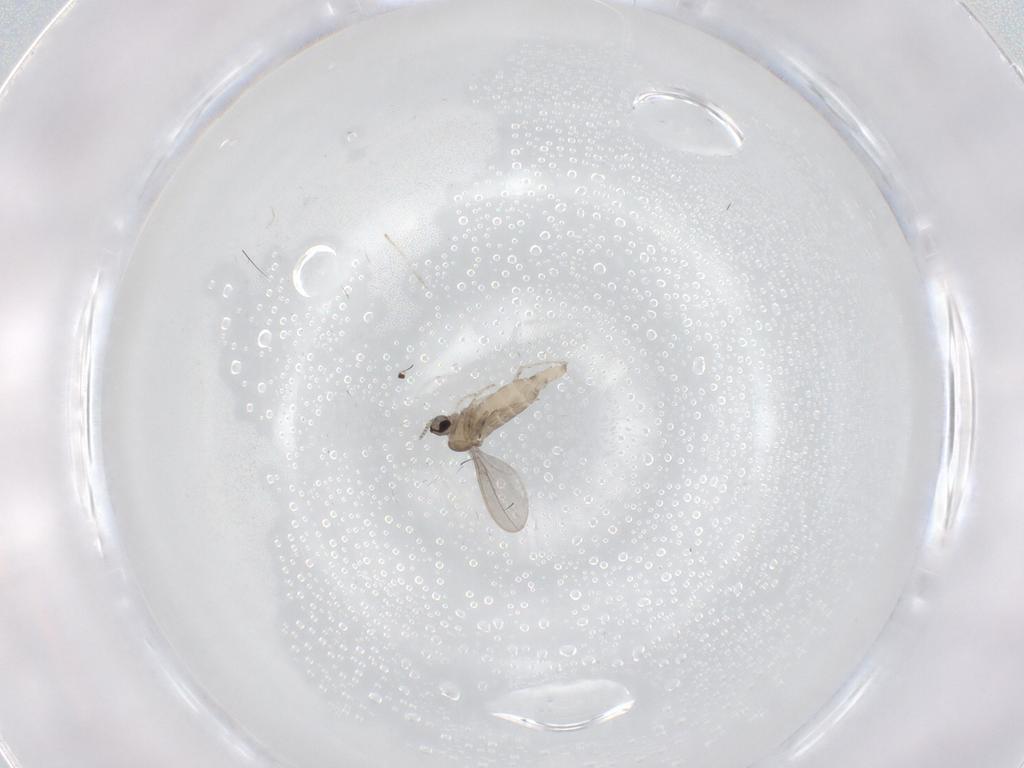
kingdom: Animalia
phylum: Arthropoda
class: Insecta
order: Diptera
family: Cecidomyiidae
